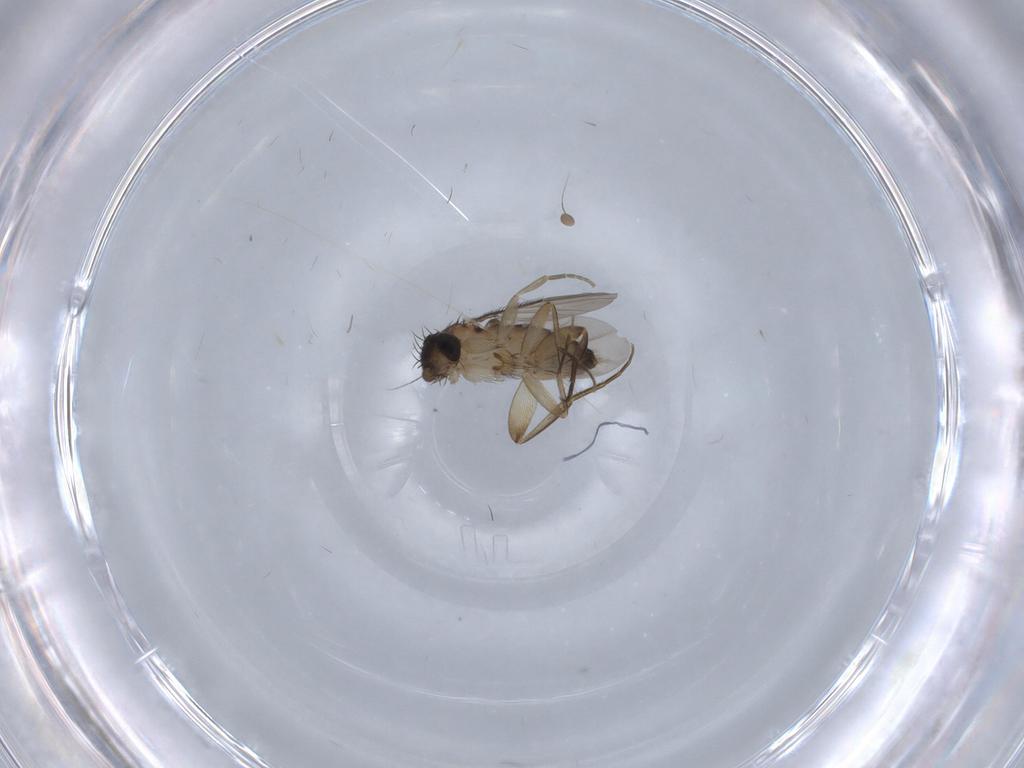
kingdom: Animalia
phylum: Arthropoda
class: Insecta
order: Diptera
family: Phoridae
